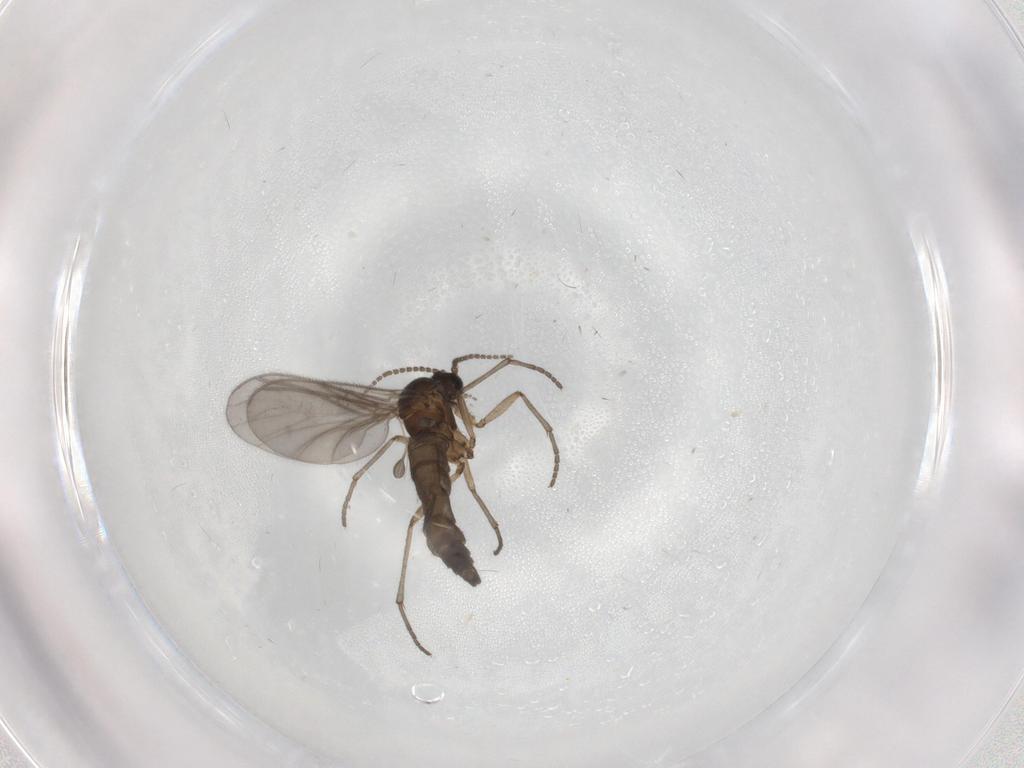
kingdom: Animalia
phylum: Arthropoda
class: Insecta
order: Diptera
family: Sciaridae
